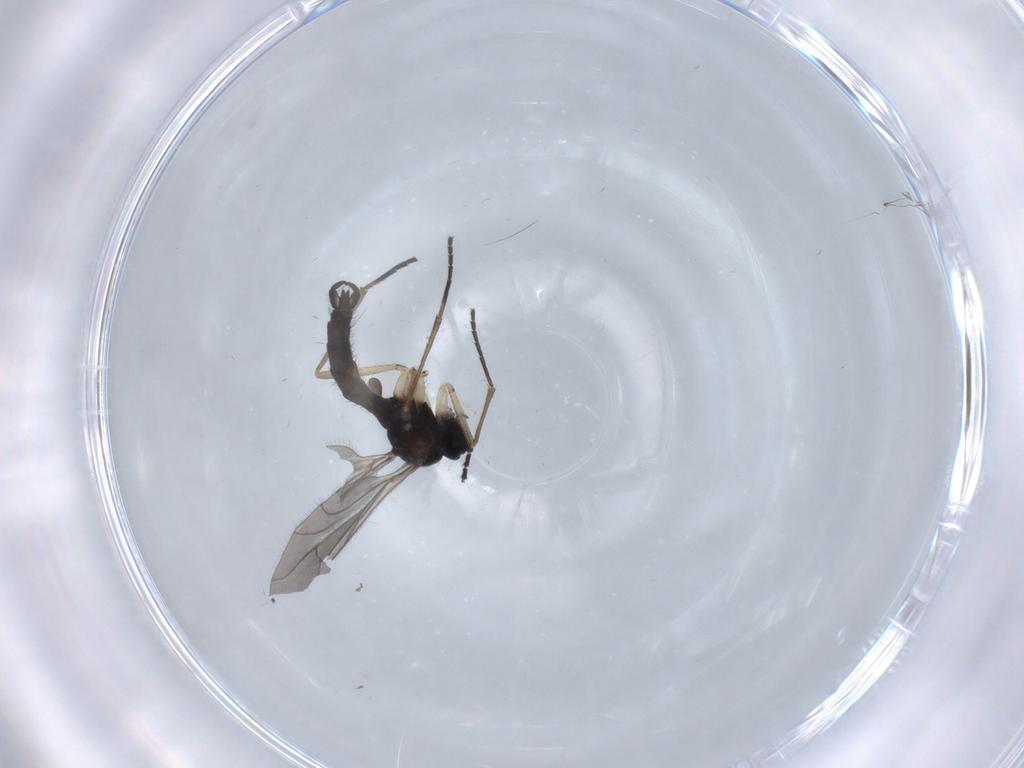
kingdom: Animalia
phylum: Arthropoda
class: Insecta
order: Diptera
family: Sciaridae
